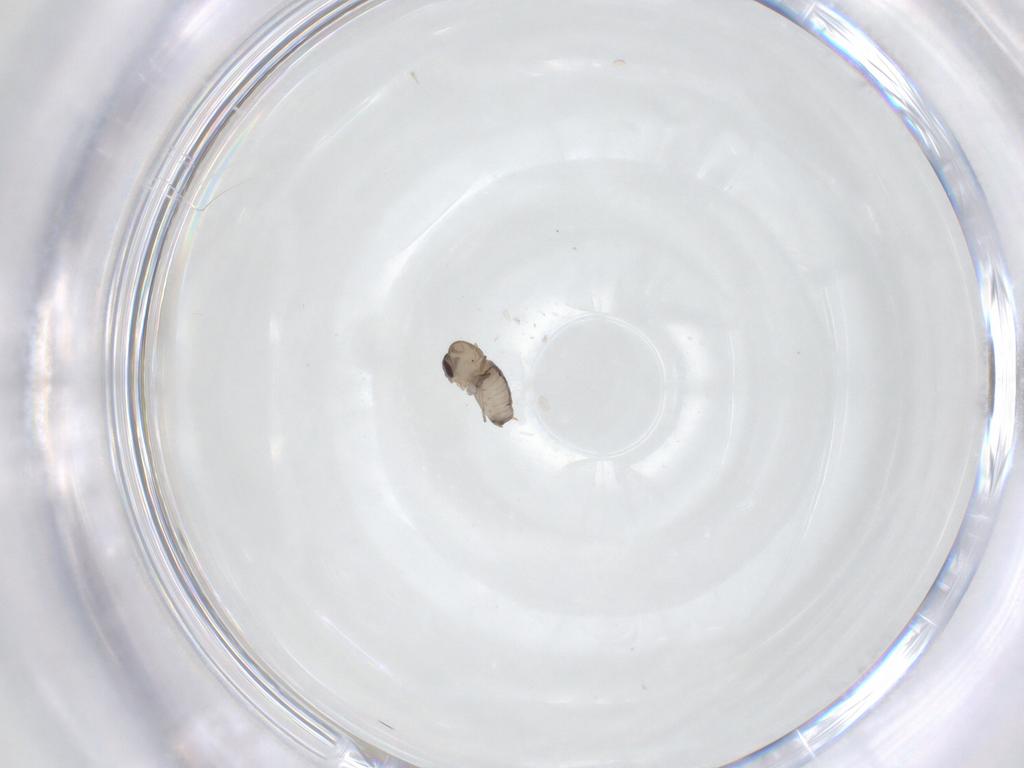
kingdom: Animalia
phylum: Arthropoda
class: Insecta
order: Diptera
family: Psychodidae
